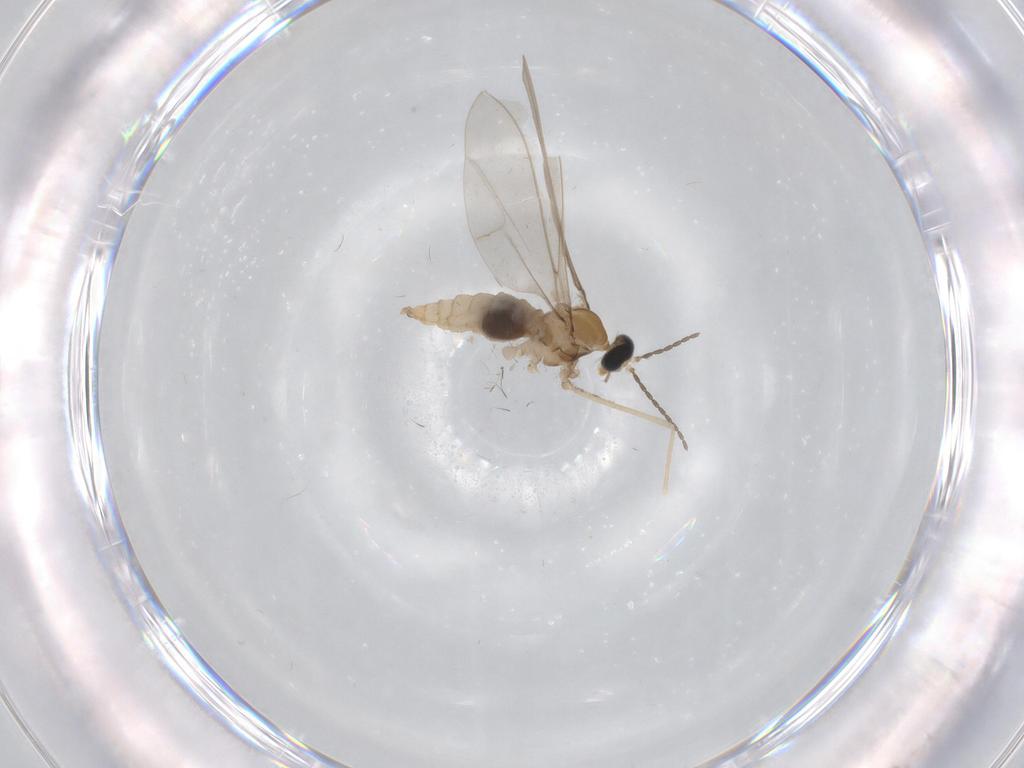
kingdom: Animalia
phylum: Arthropoda
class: Insecta
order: Diptera
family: Cecidomyiidae
